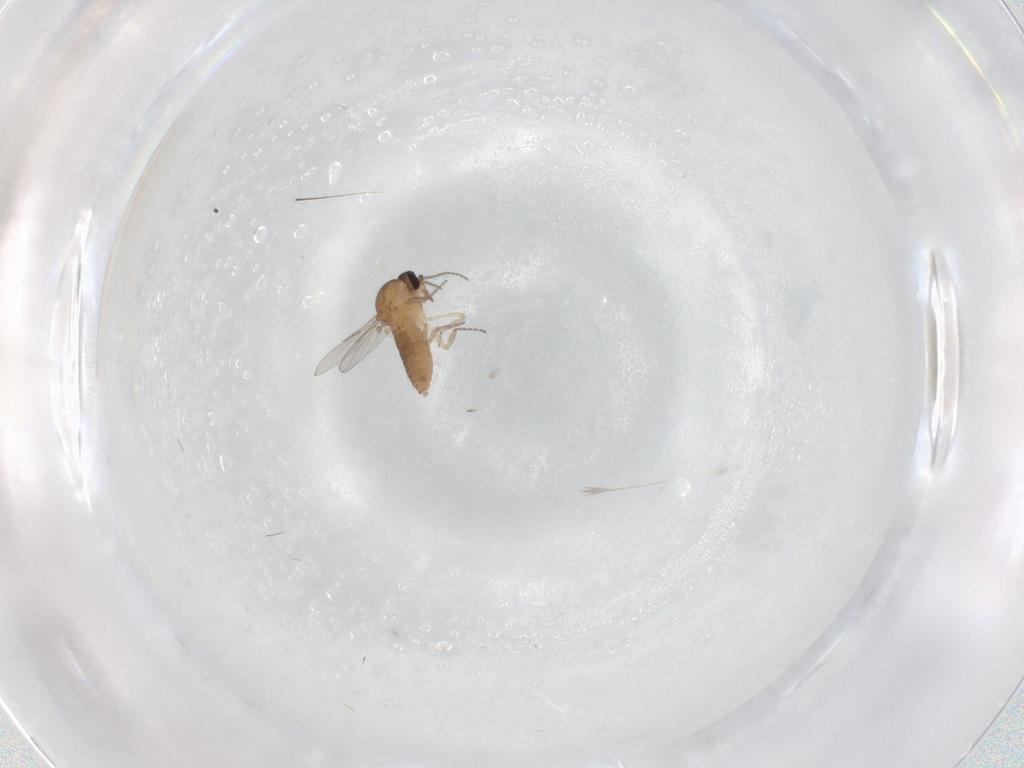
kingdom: Animalia
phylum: Arthropoda
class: Insecta
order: Diptera
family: Ceratopogonidae
